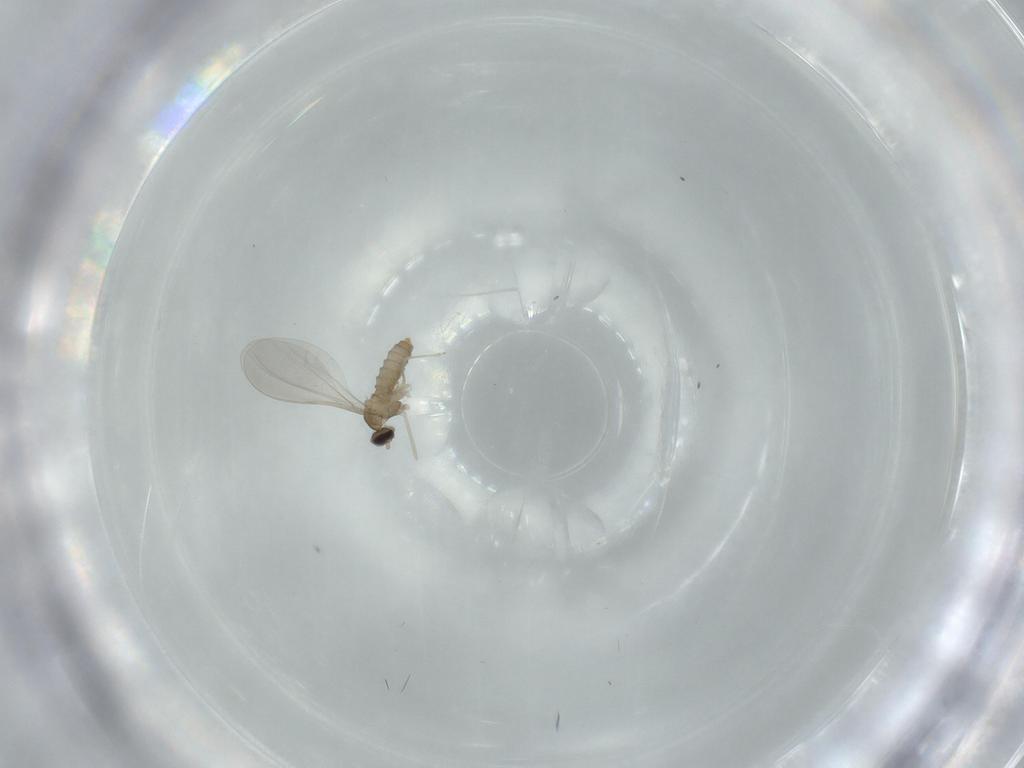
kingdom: Animalia
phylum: Arthropoda
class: Insecta
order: Diptera
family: Cecidomyiidae
